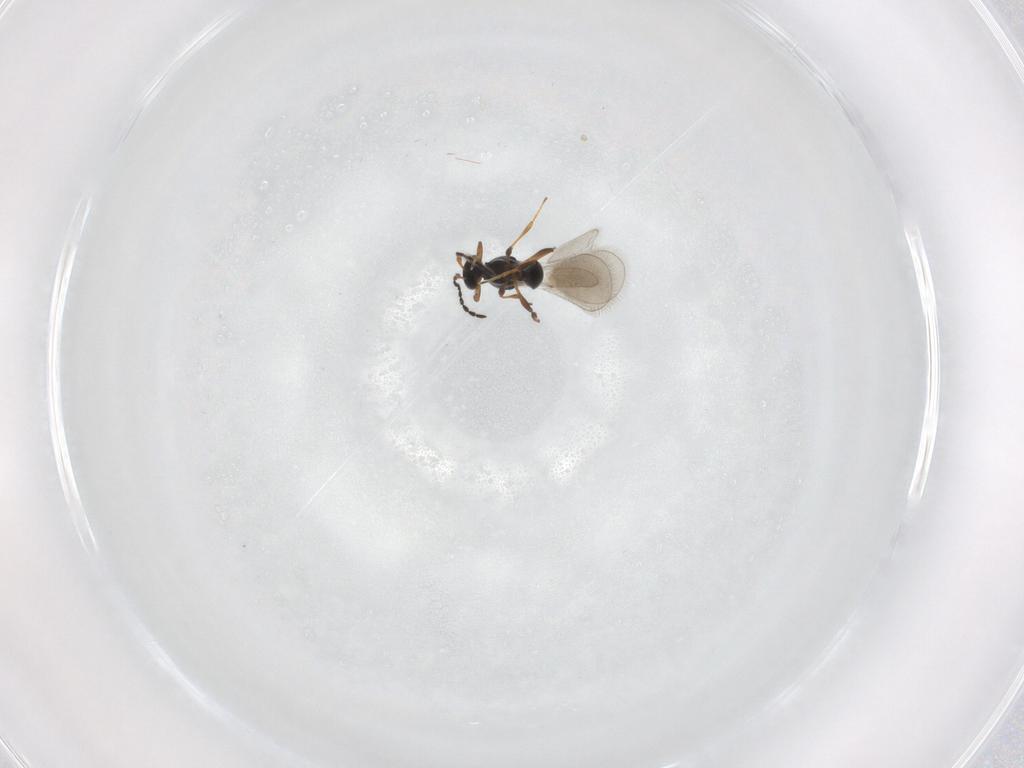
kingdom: Animalia
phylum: Arthropoda
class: Insecta
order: Hymenoptera
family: Platygastridae
